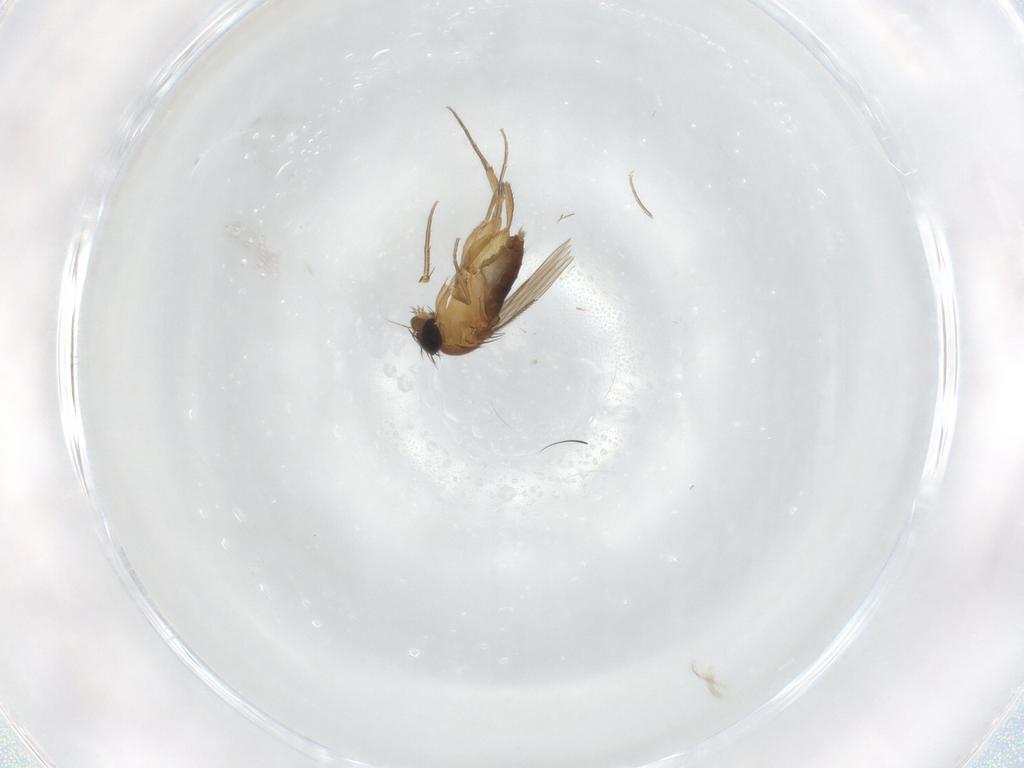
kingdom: Animalia
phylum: Arthropoda
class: Insecta
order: Diptera
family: Phoridae
